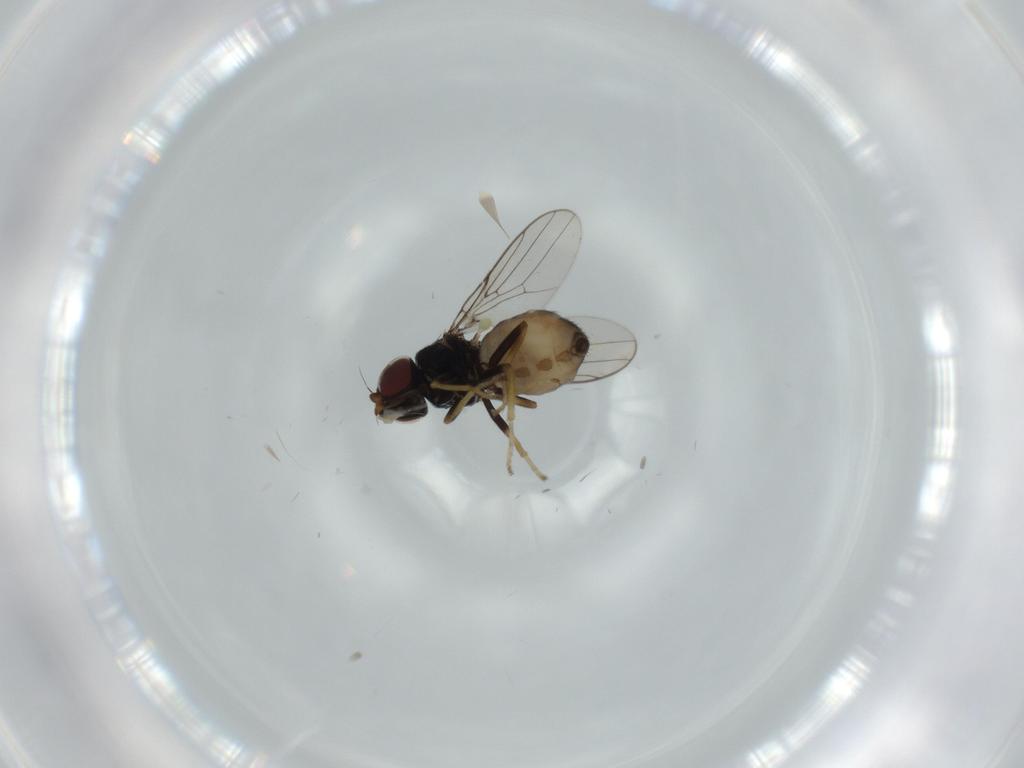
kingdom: Animalia
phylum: Arthropoda
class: Insecta
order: Diptera
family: Chloropidae
